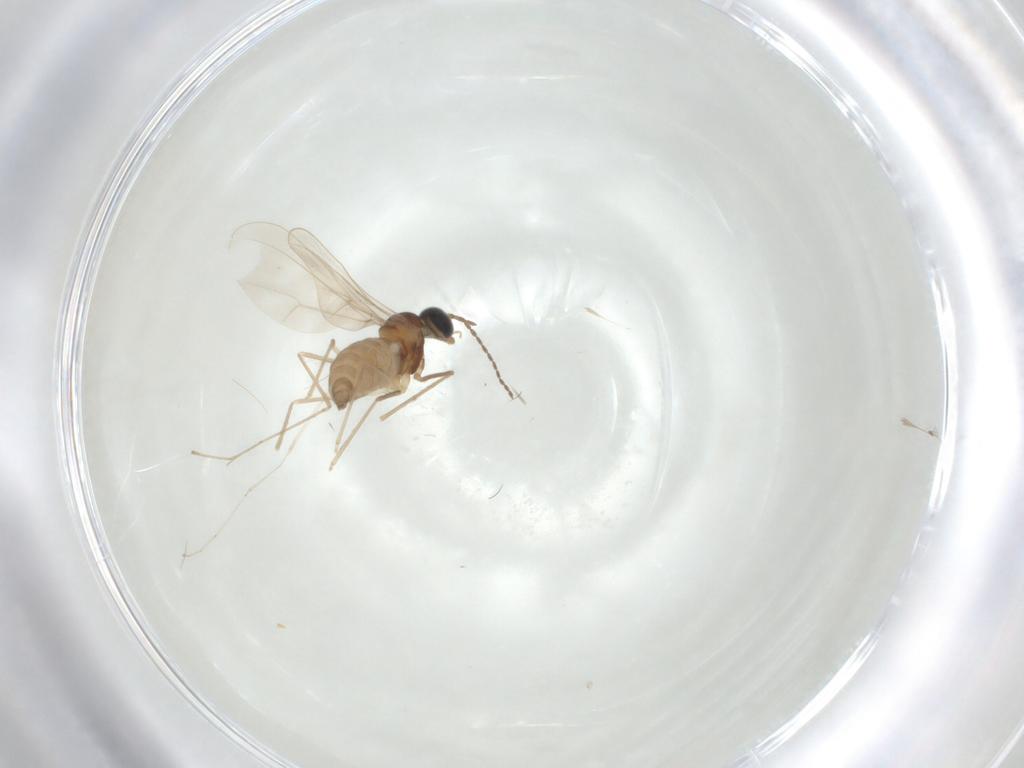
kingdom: Animalia
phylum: Arthropoda
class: Insecta
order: Diptera
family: Cecidomyiidae
